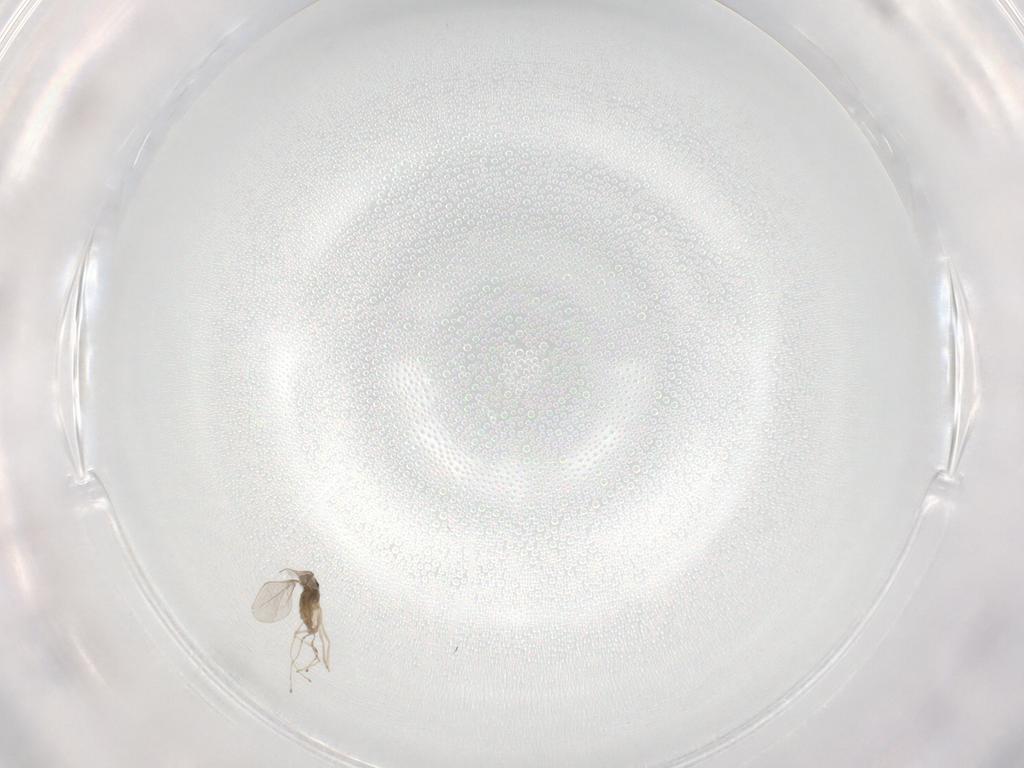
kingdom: Animalia
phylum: Arthropoda
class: Insecta
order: Diptera
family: Cecidomyiidae
